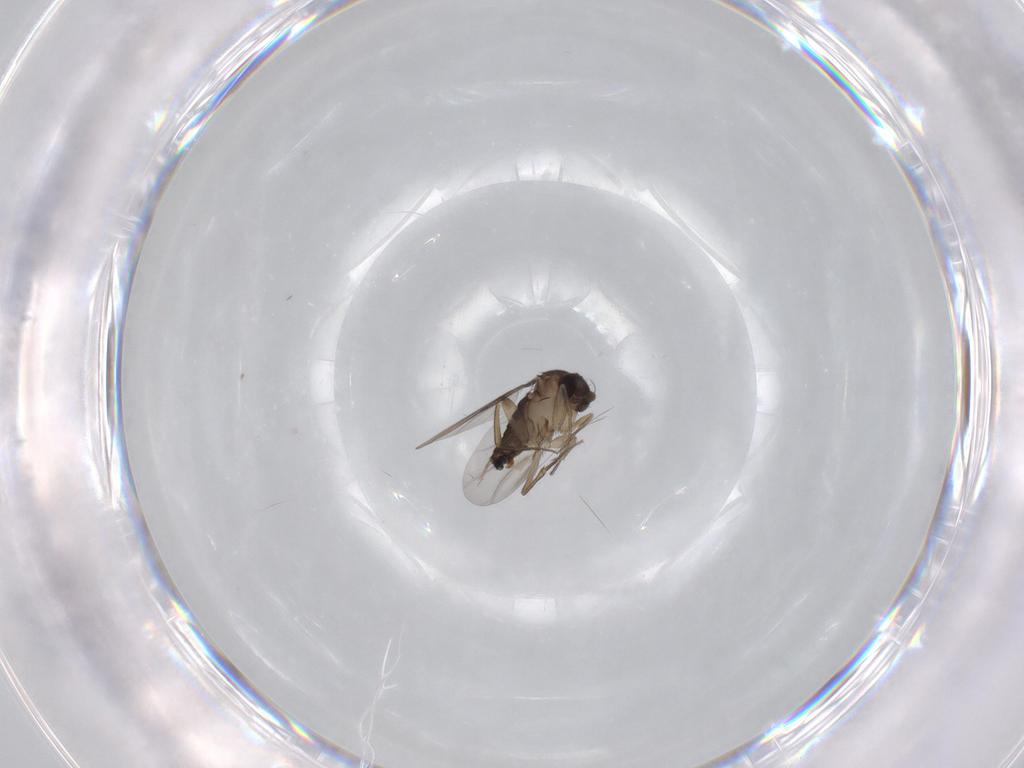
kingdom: Animalia
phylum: Arthropoda
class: Insecta
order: Diptera
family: Phoridae
